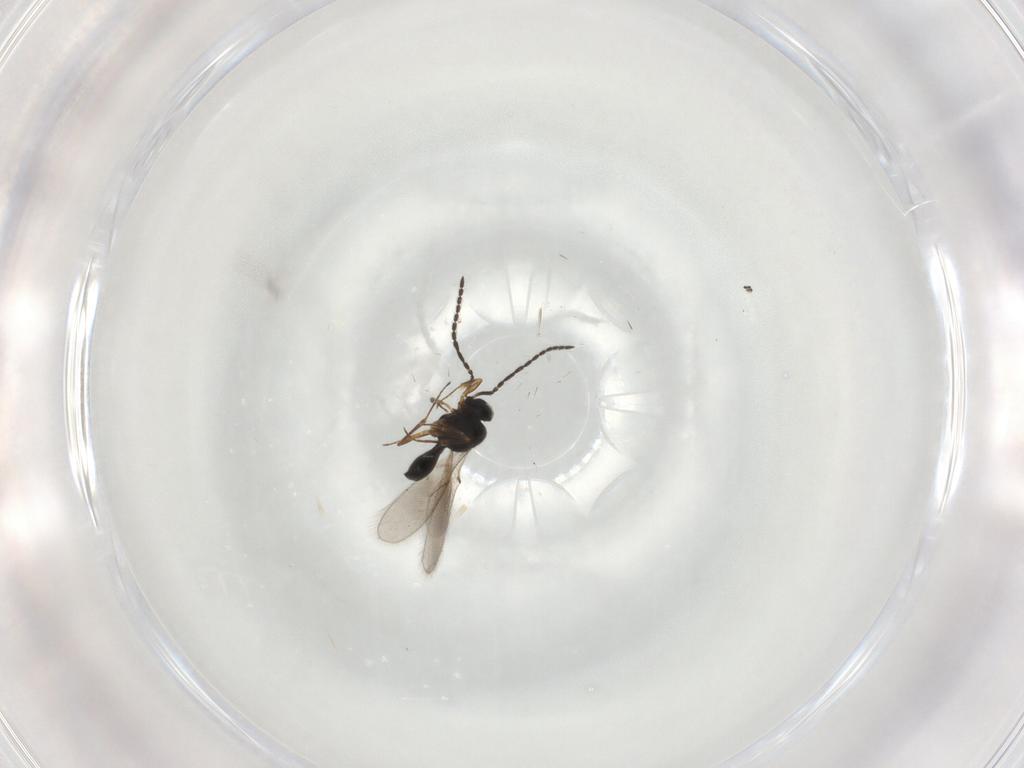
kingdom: Animalia
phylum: Arthropoda
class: Insecta
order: Hymenoptera
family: Scelionidae
